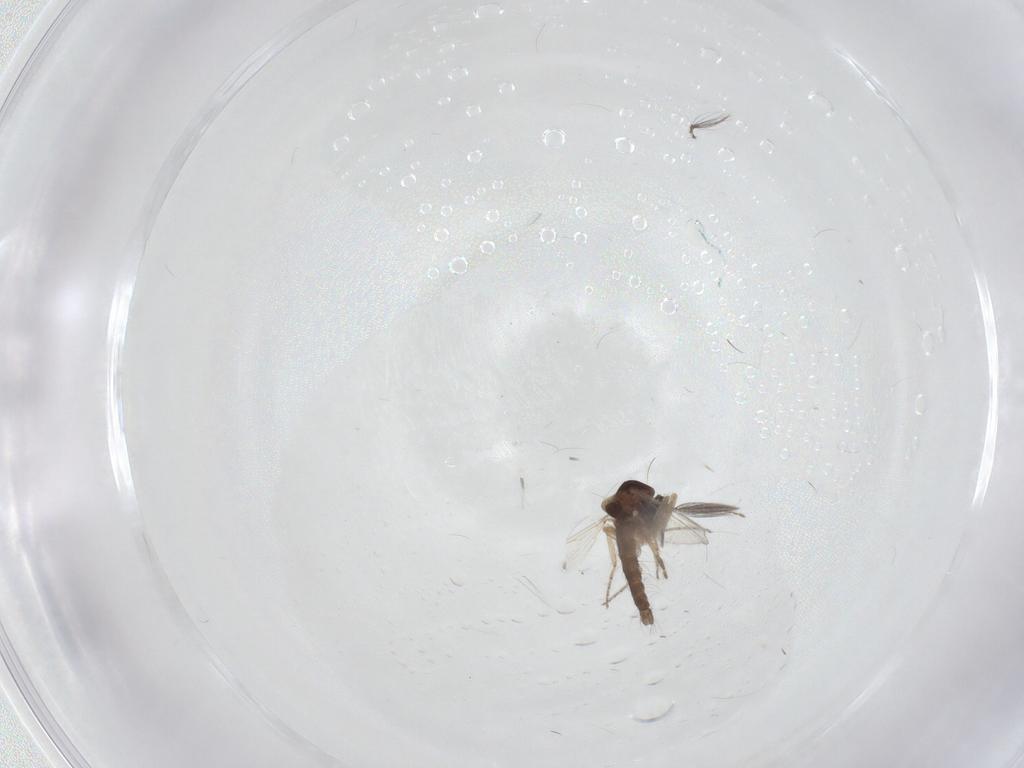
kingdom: Animalia
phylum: Arthropoda
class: Insecta
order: Diptera
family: Ceratopogonidae
